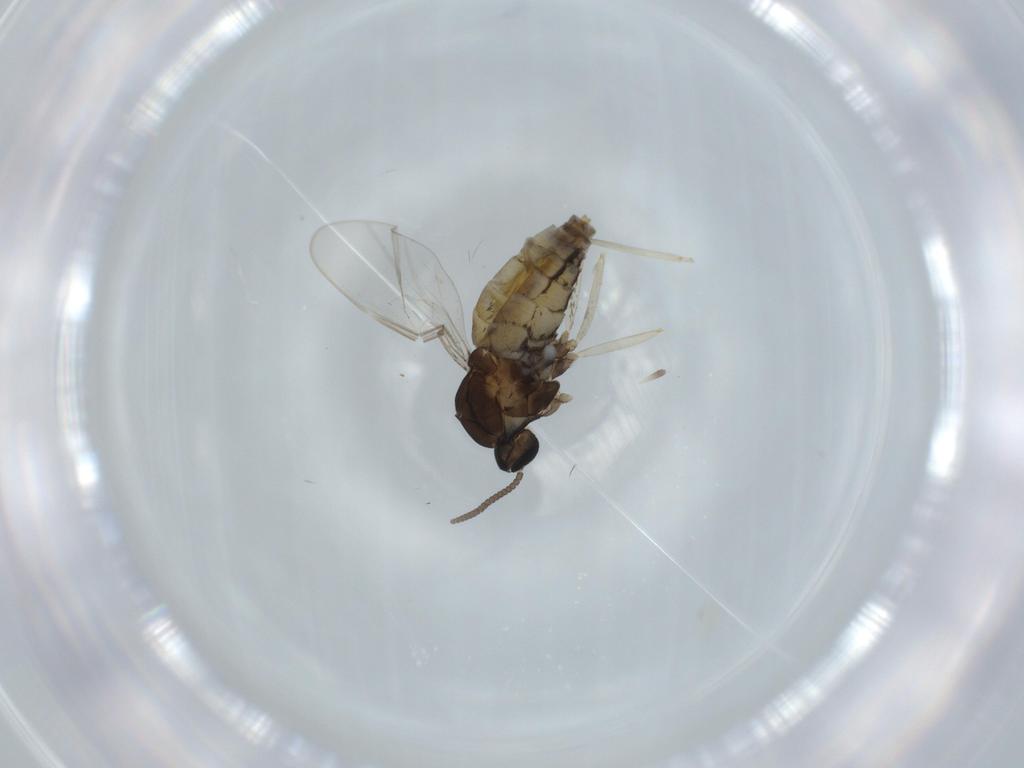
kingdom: Animalia
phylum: Arthropoda
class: Insecta
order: Diptera
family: Cecidomyiidae
